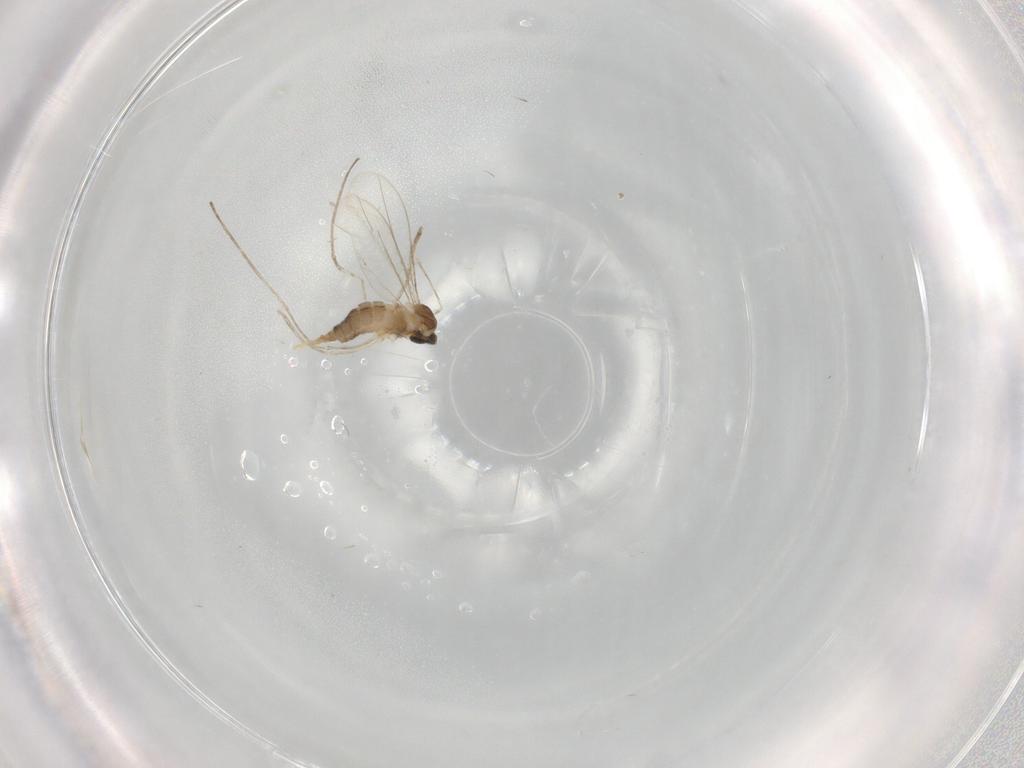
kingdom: Animalia
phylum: Arthropoda
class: Insecta
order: Diptera
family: Cecidomyiidae
